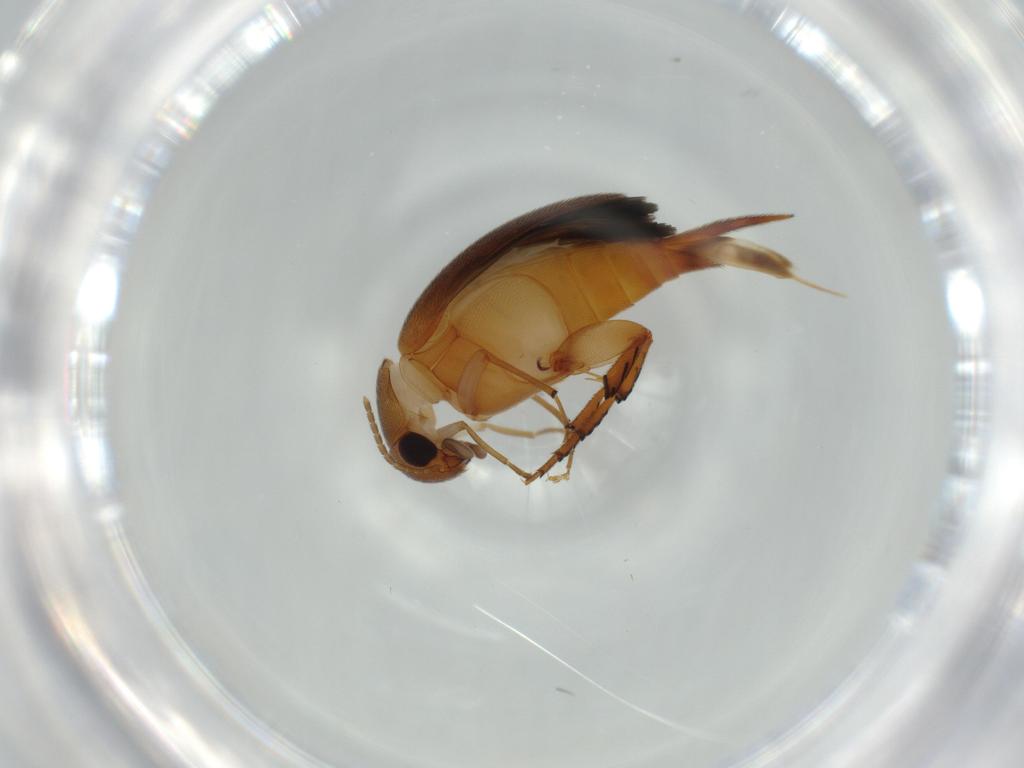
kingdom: Animalia
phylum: Arthropoda
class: Insecta
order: Coleoptera
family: Mordellidae
